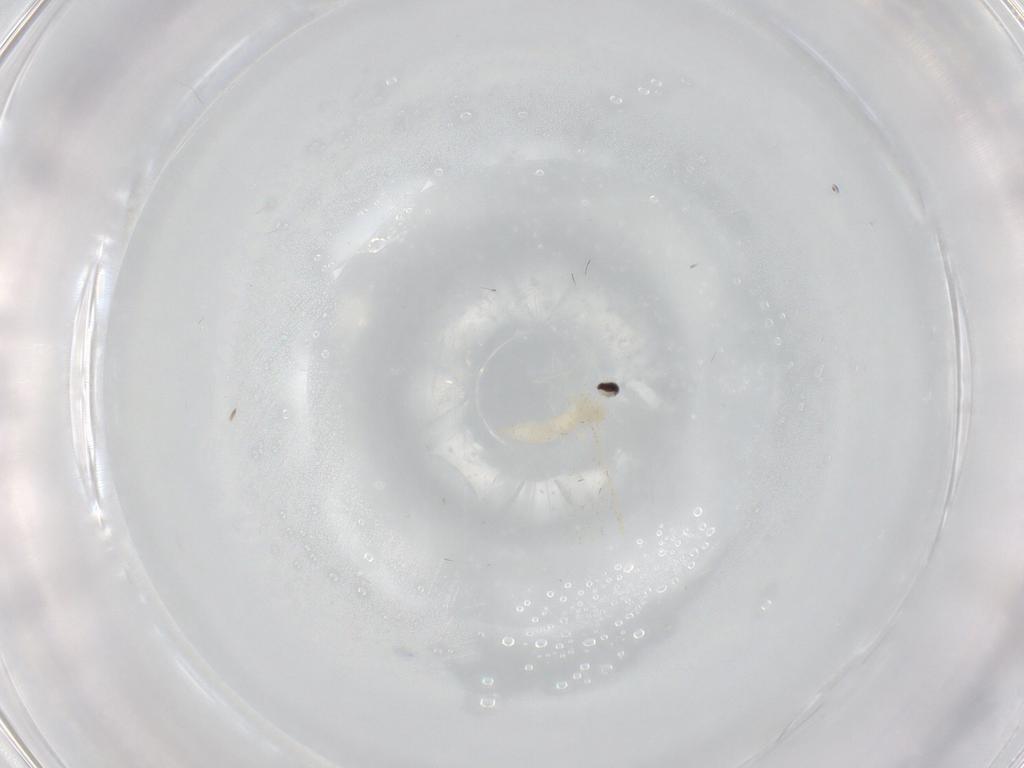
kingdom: Animalia
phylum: Arthropoda
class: Insecta
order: Diptera
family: Cecidomyiidae
